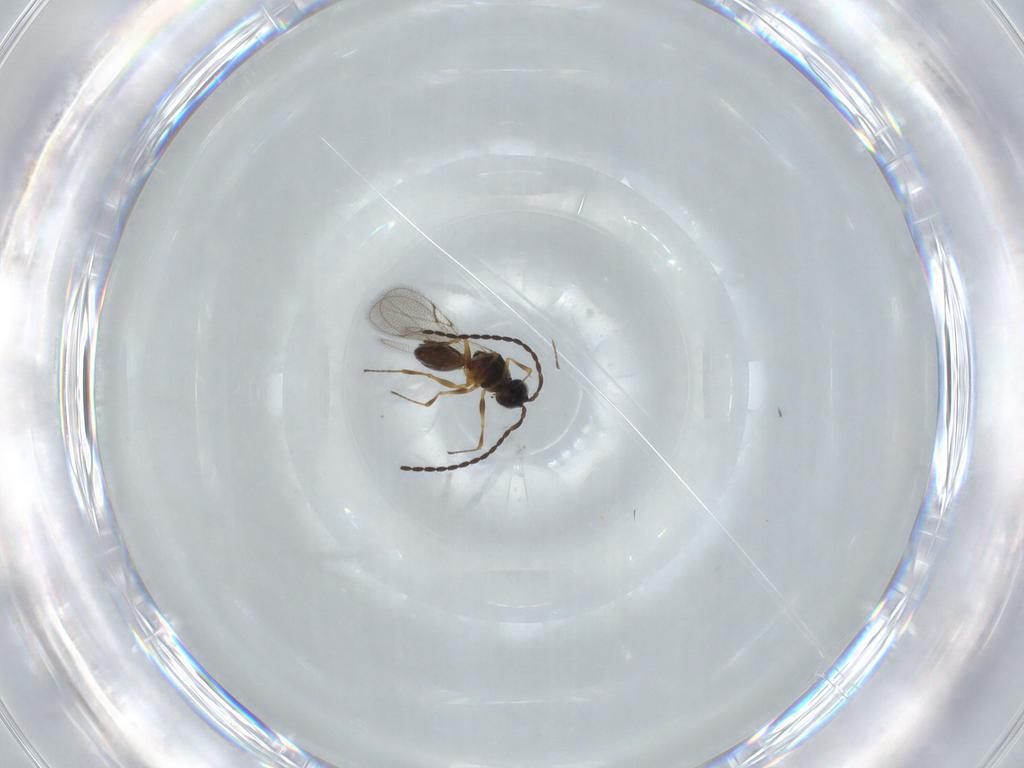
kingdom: Animalia
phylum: Arthropoda
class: Insecta
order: Hymenoptera
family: Figitidae
